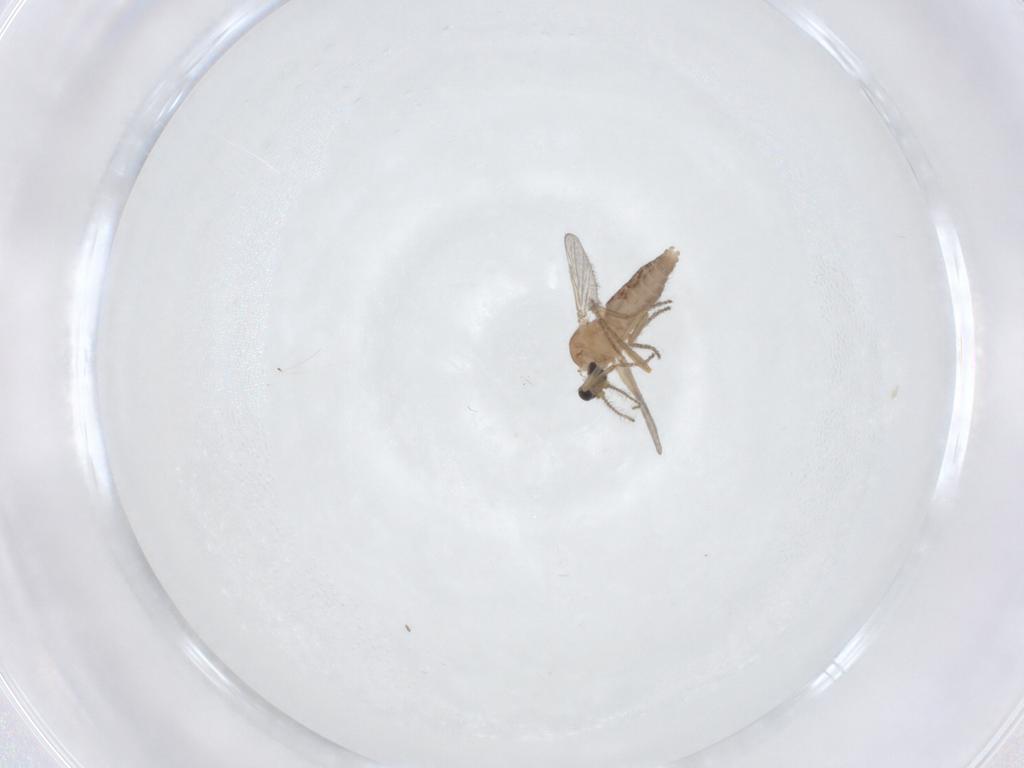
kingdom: Animalia
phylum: Arthropoda
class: Insecta
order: Diptera
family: Ceratopogonidae
